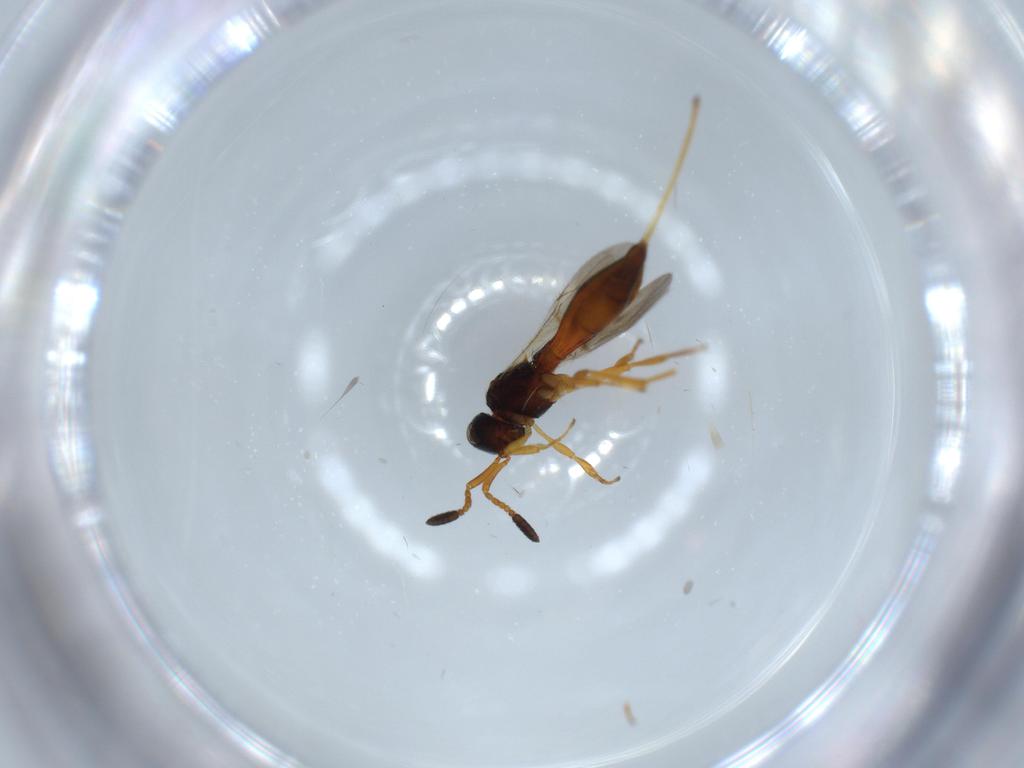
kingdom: Animalia
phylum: Arthropoda
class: Insecta
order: Hymenoptera
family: Scelionidae
